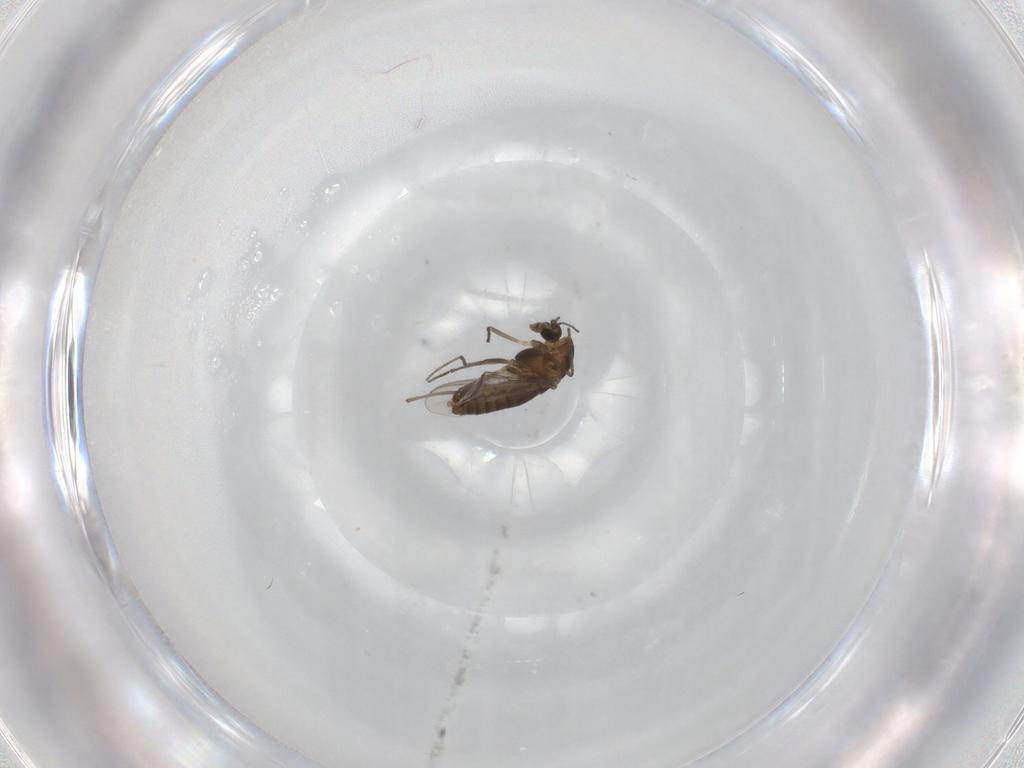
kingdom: Animalia
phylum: Arthropoda
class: Insecta
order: Diptera
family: Chironomidae
